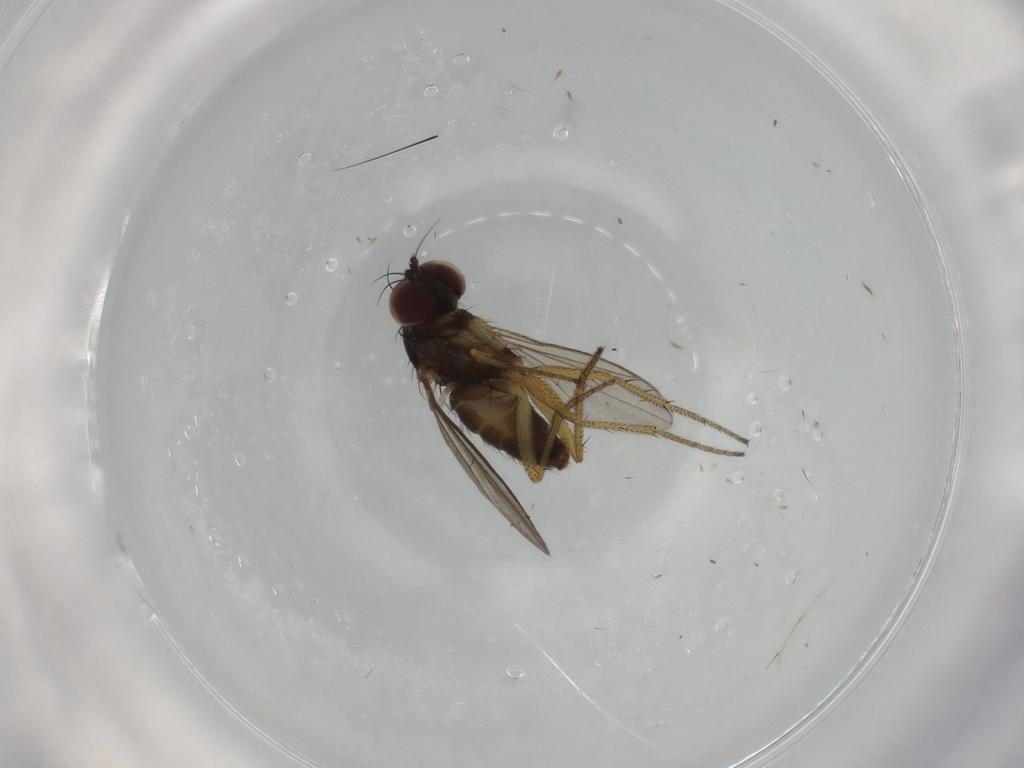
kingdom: Animalia
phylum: Arthropoda
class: Insecta
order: Diptera
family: Dolichopodidae
